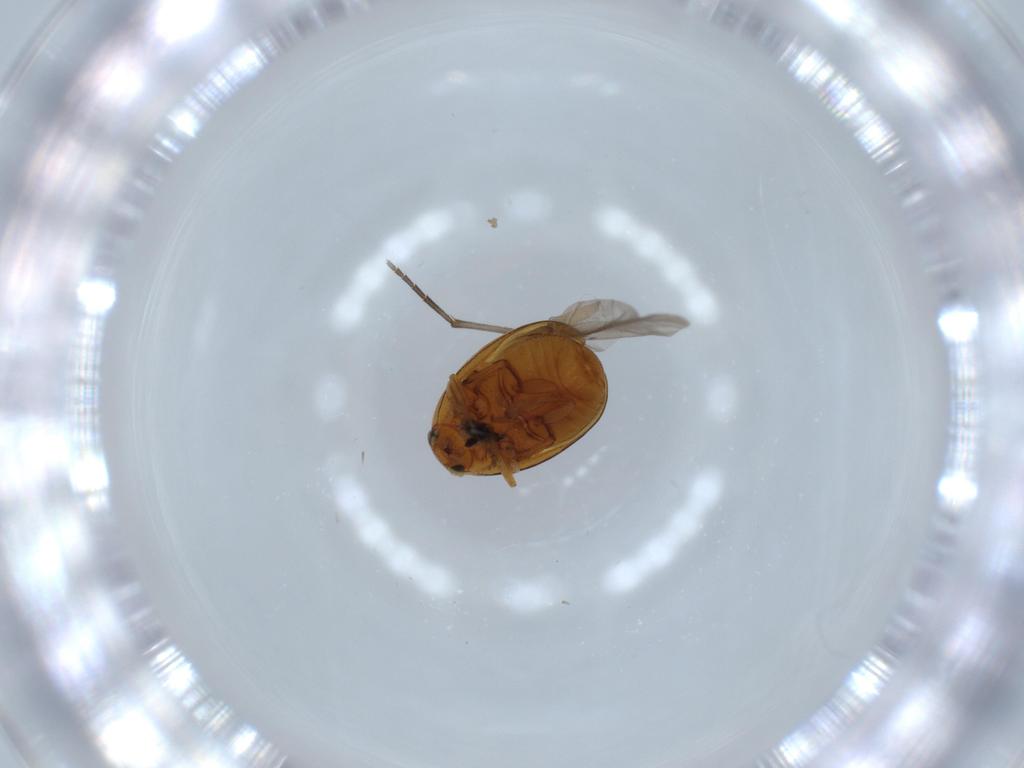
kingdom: Animalia
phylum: Arthropoda
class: Insecta
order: Coleoptera
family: Chrysomelidae
